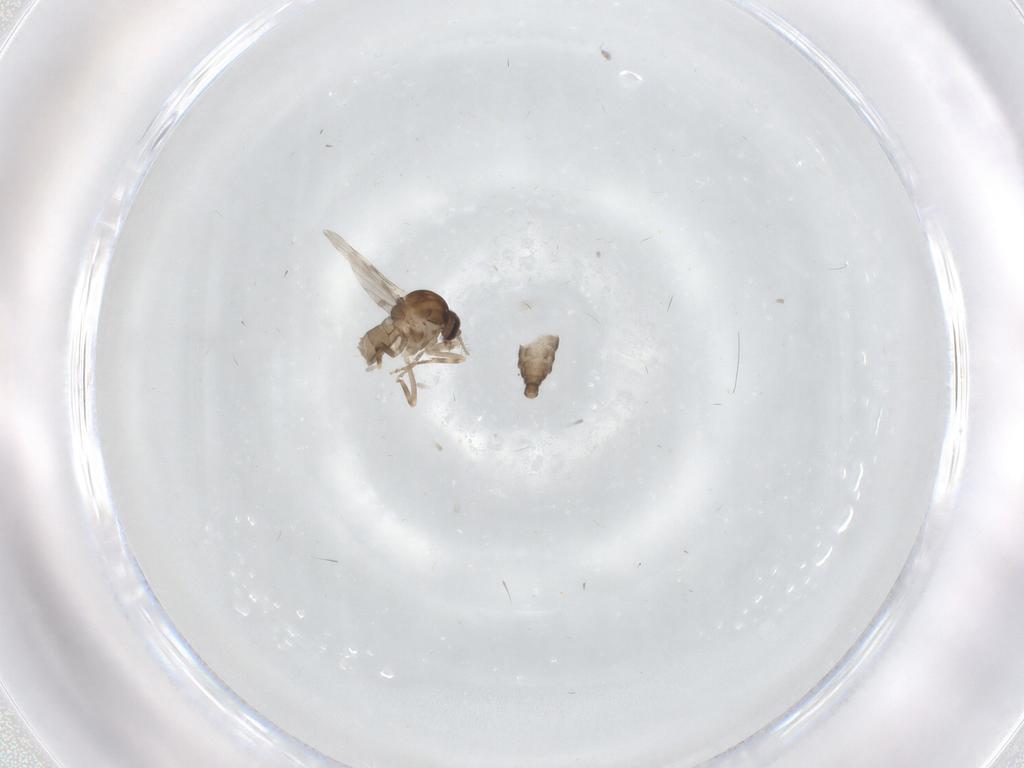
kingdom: Animalia
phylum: Arthropoda
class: Insecta
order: Diptera
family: Ceratopogonidae
